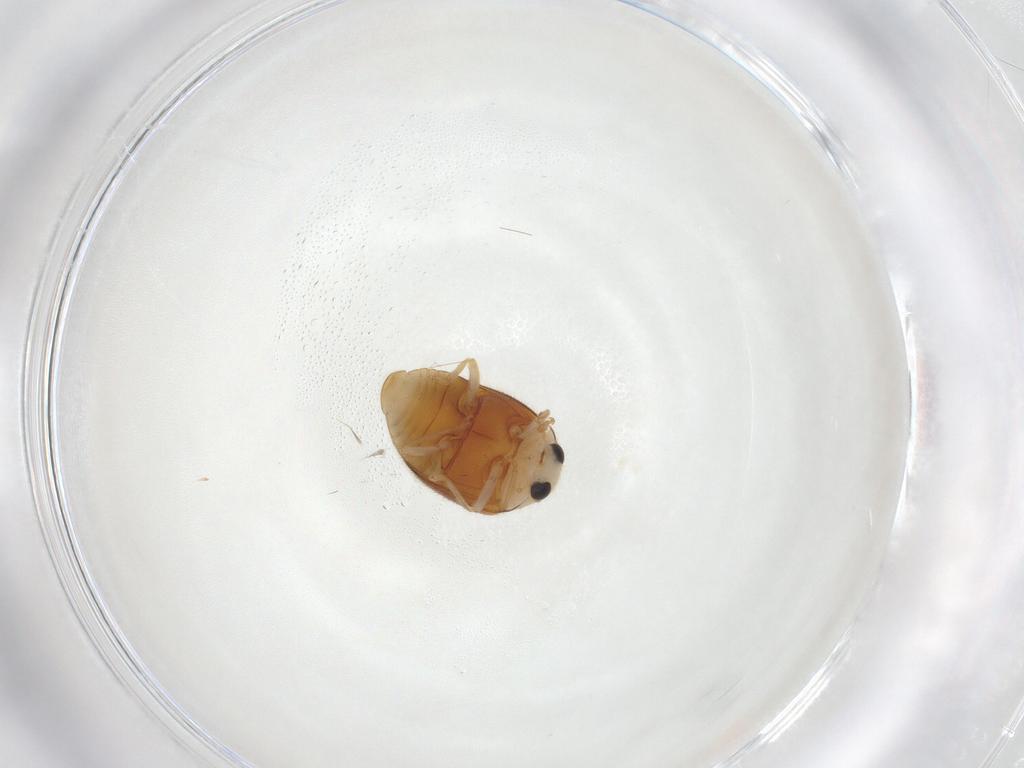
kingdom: Animalia
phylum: Arthropoda
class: Insecta
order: Coleoptera
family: Coccinellidae
